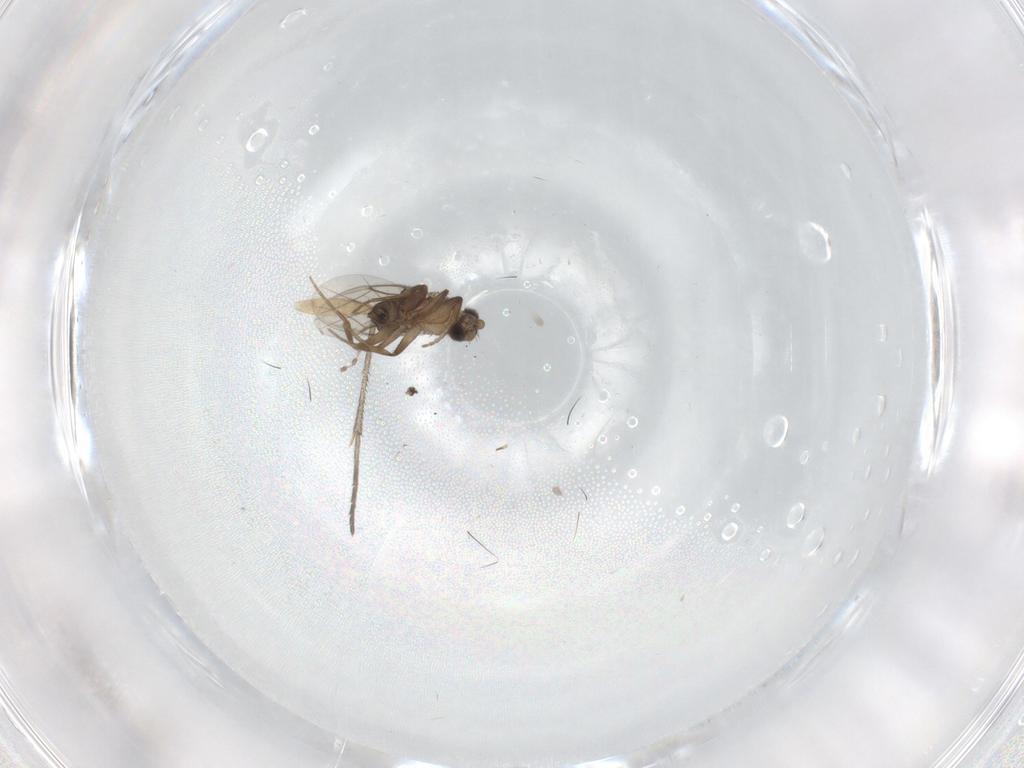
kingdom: Animalia
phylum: Arthropoda
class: Insecta
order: Diptera
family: Sciaridae
